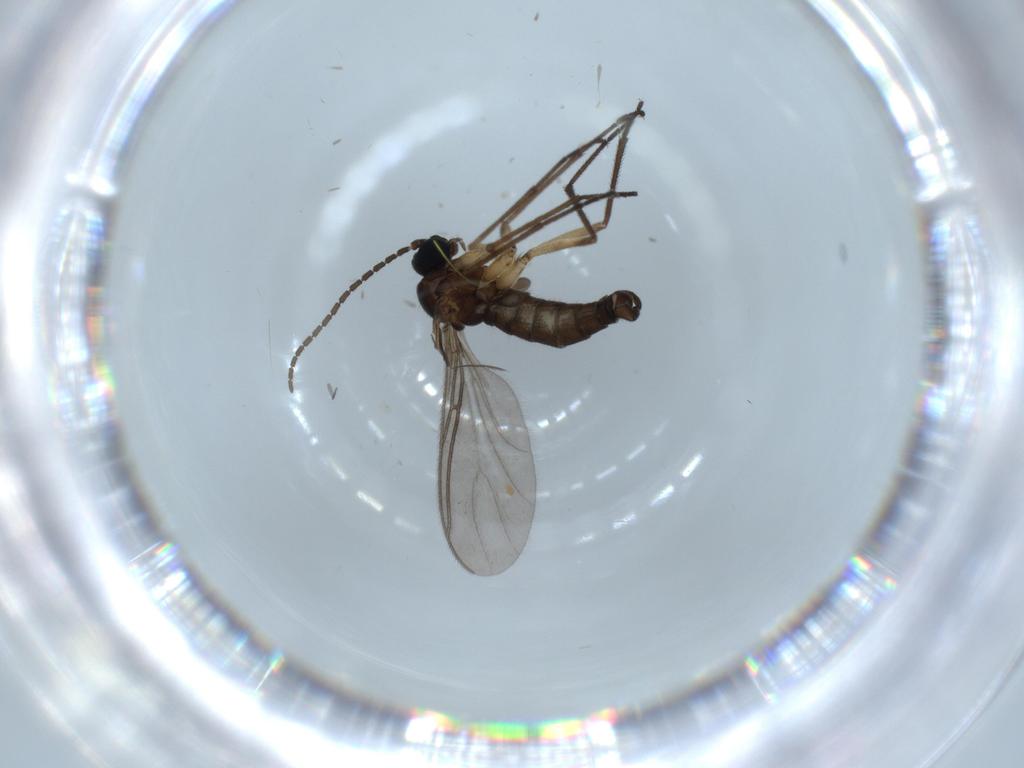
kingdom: Animalia
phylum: Arthropoda
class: Insecta
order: Diptera
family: Sciaridae
